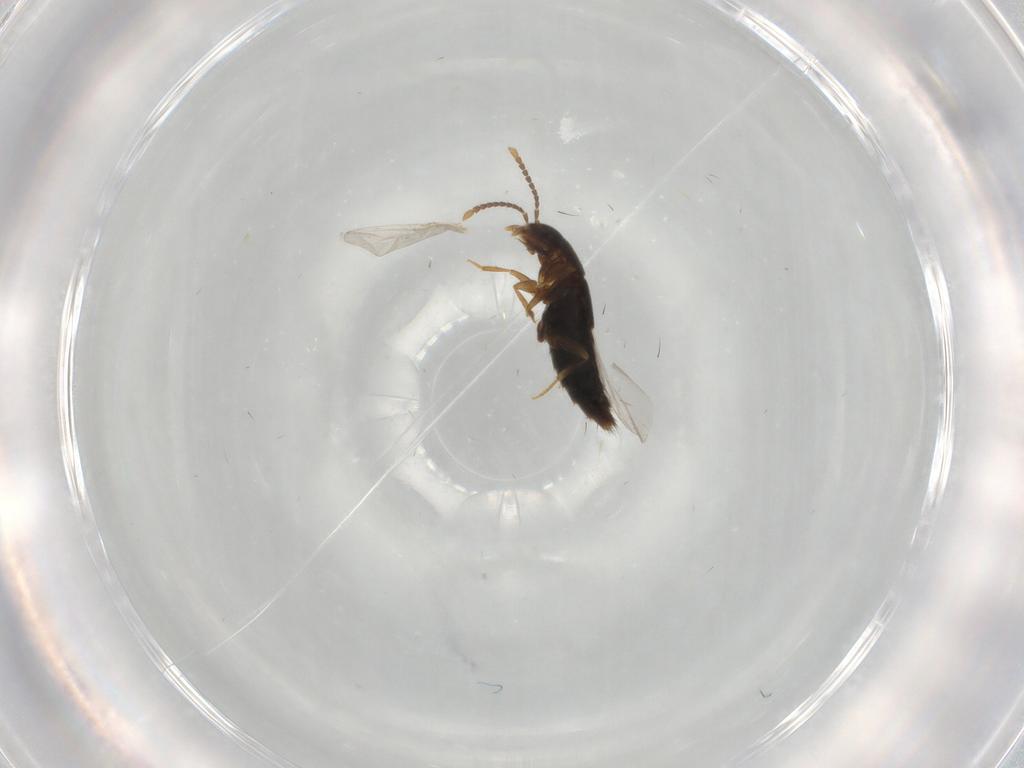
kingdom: Animalia
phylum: Arthropoda
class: Insecta
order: Coleoptera
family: Staphylinidae
